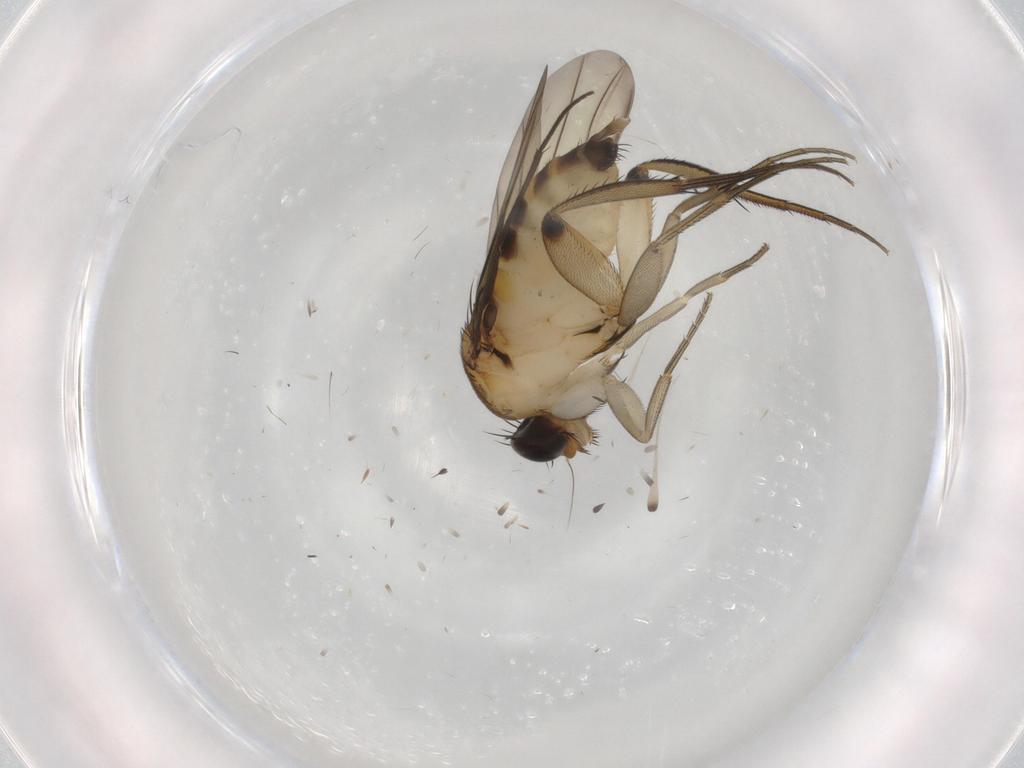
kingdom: Animalia
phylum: Arthropoda
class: Insecta
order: Diptera
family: Phoridae
